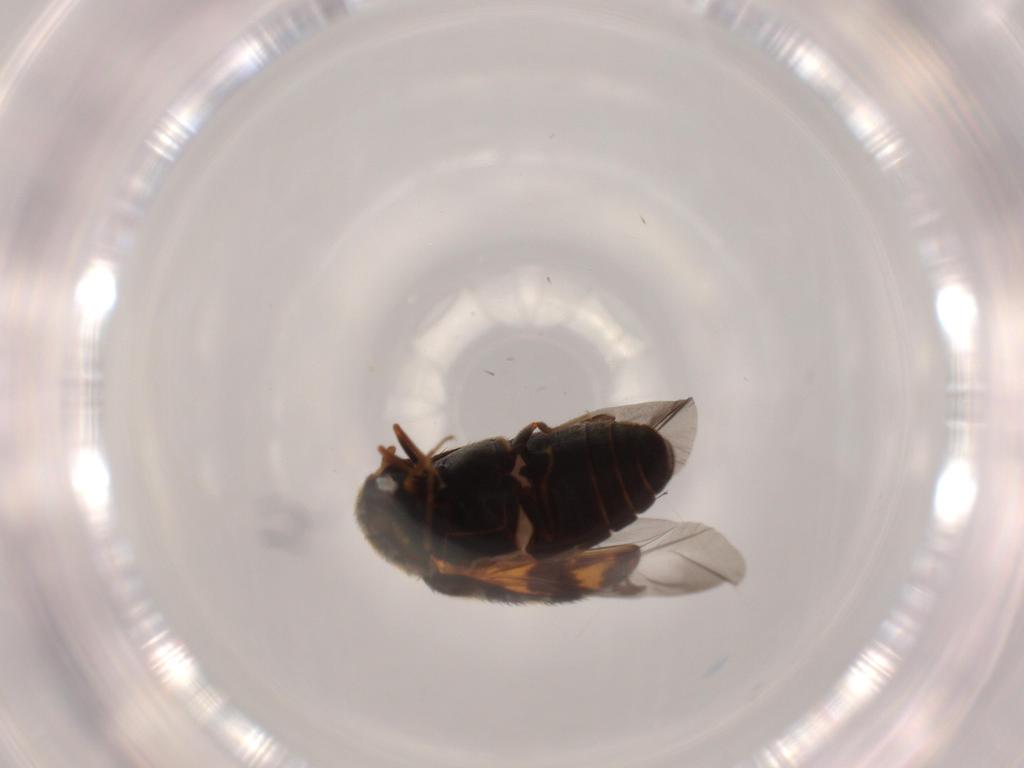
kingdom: Animalia
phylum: Arthropoda
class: Insecta
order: Coleoptera
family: Dermestidae
